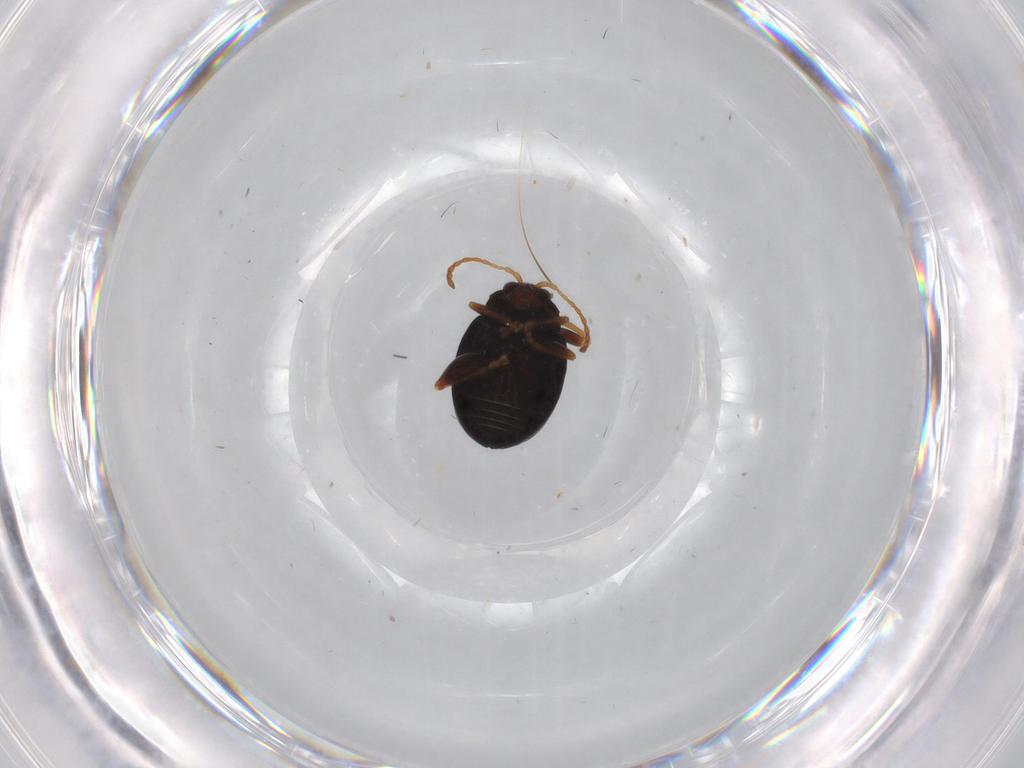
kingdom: Animalia
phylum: Arthropoda
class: Insecta
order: Coleoptera
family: Chrysomelidae
